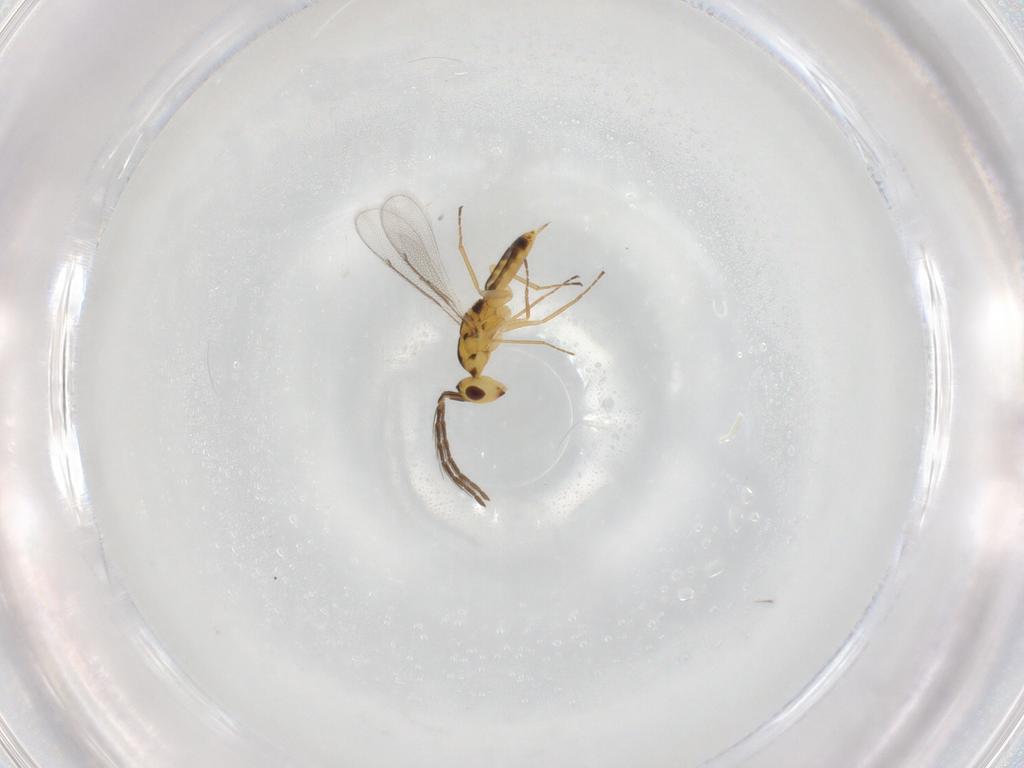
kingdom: Animalia
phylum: Arthropoda
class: Insecta
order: Hymenoptera
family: Eulophidae
